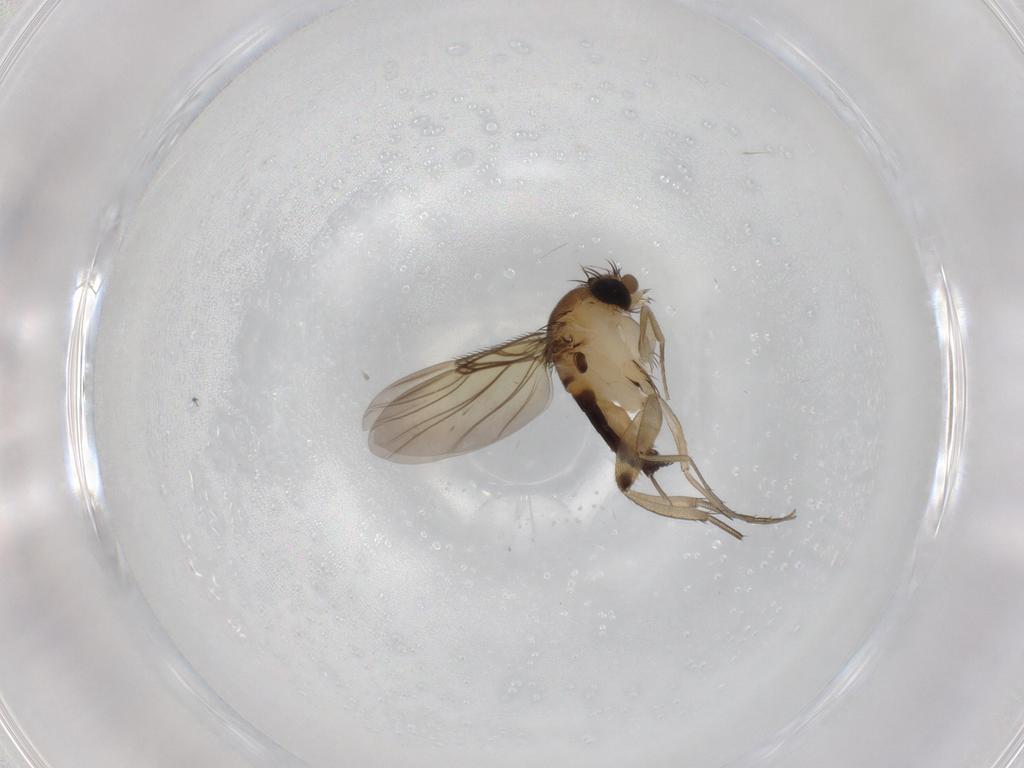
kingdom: Animalia
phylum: Arthropoda
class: Insecta
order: Diptera
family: Phoridae
